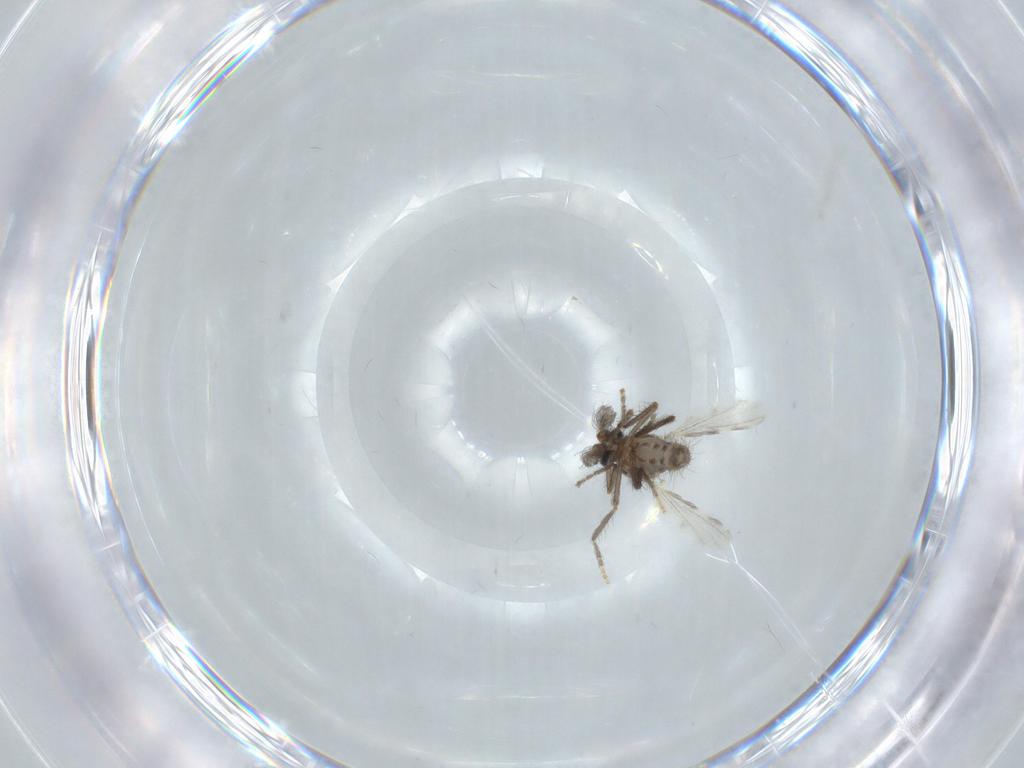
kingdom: Animalia
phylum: Arthropoda
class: Insecta
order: Diptera
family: Ceratopogonidae
